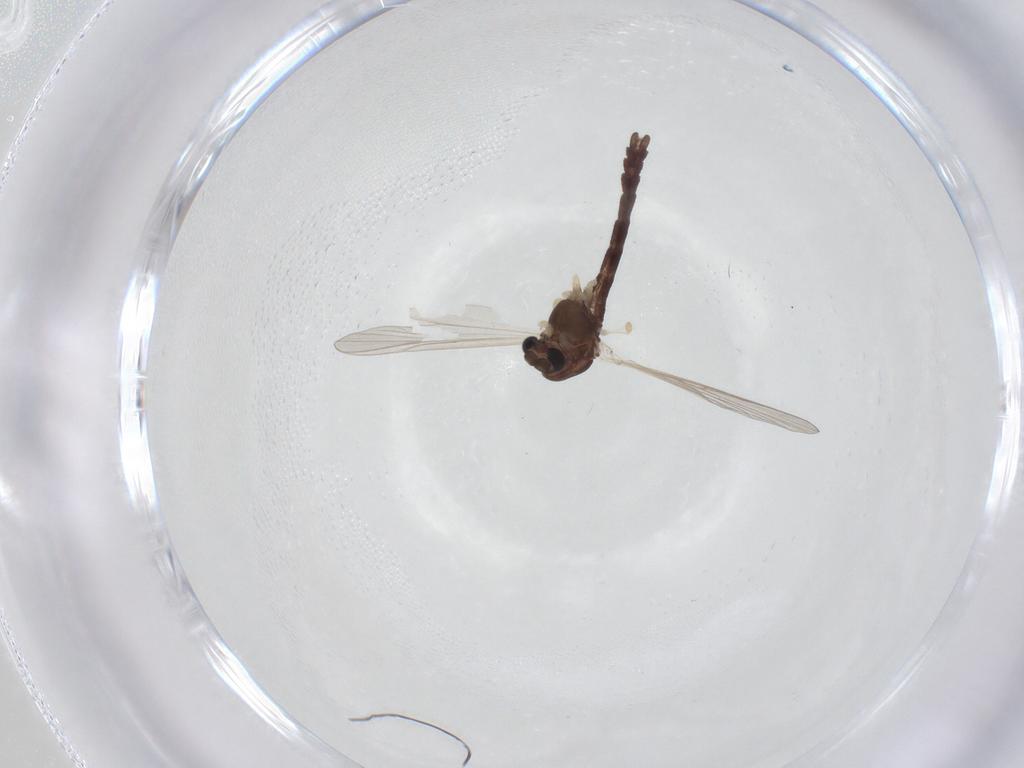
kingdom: Animalia
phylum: Arthropoda
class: Insecta
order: Diptera
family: Chironomidae
